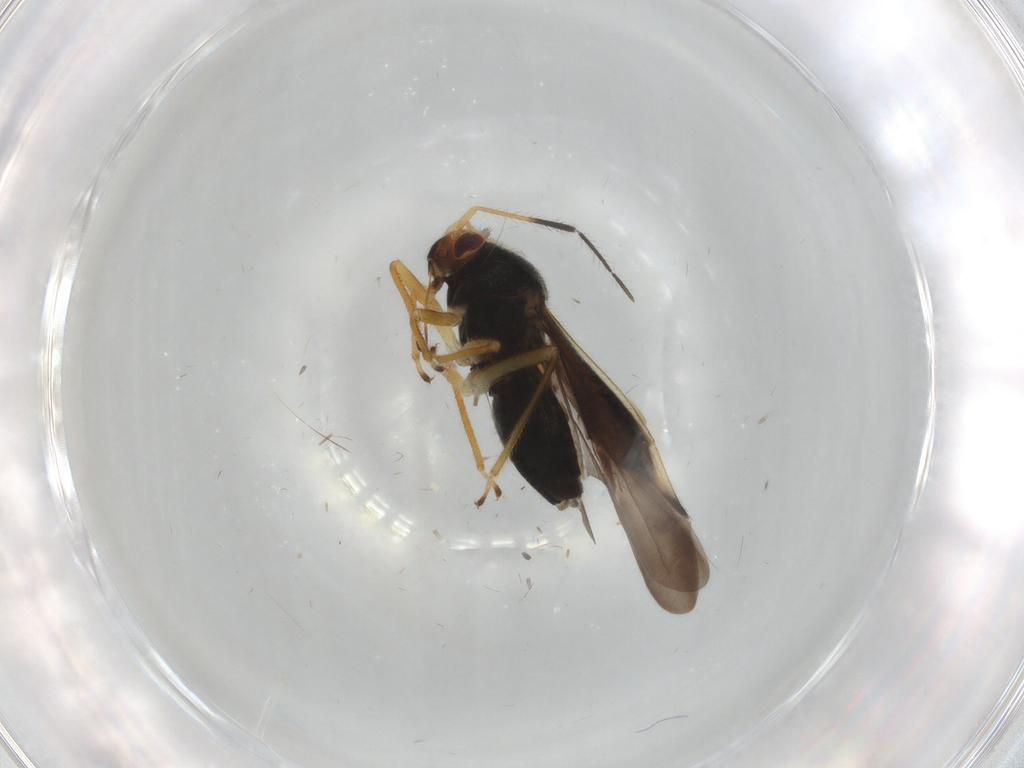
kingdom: Animalia
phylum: Arthropoda
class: Insecta
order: Hemiptera
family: Miridae
